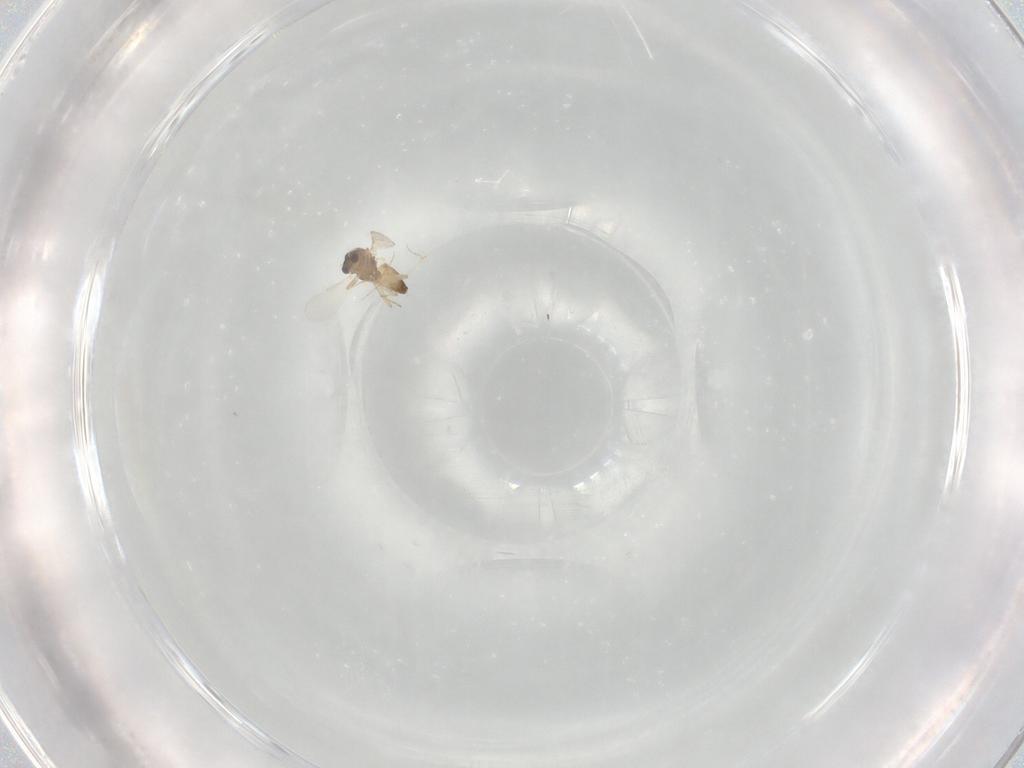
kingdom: Animalia
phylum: Arthropoda
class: Insecta
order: Diptera
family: Chironomidae
